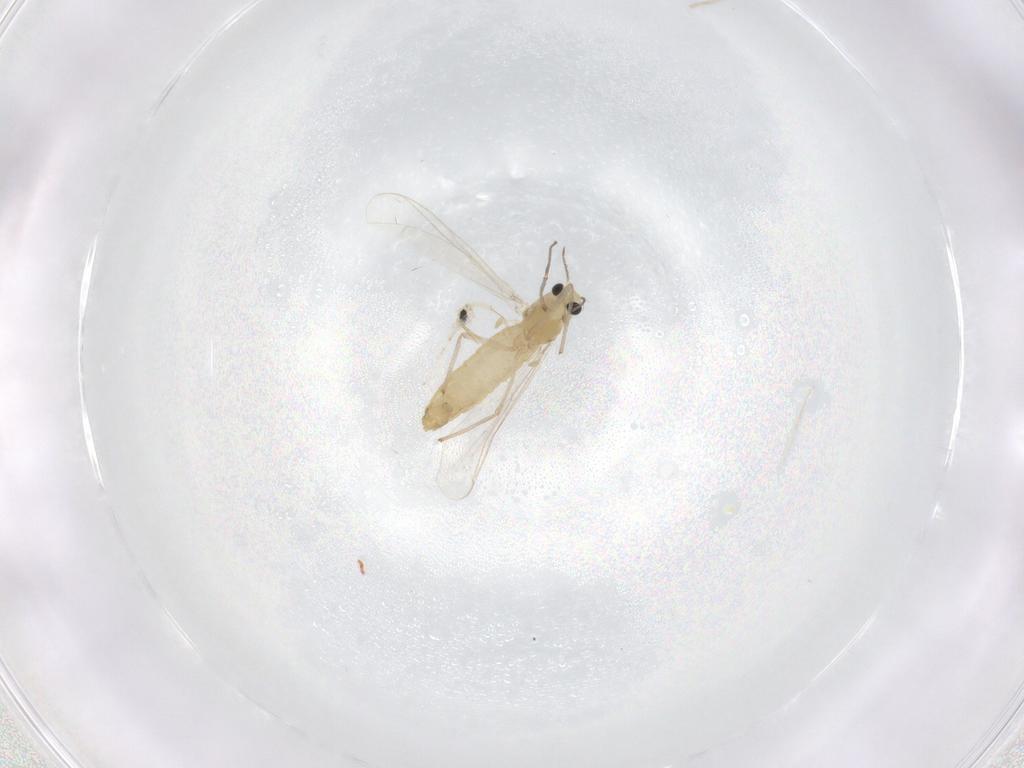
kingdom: Animalia
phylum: Arthropoda
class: Insecta
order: Diptera
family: Chironomidae
